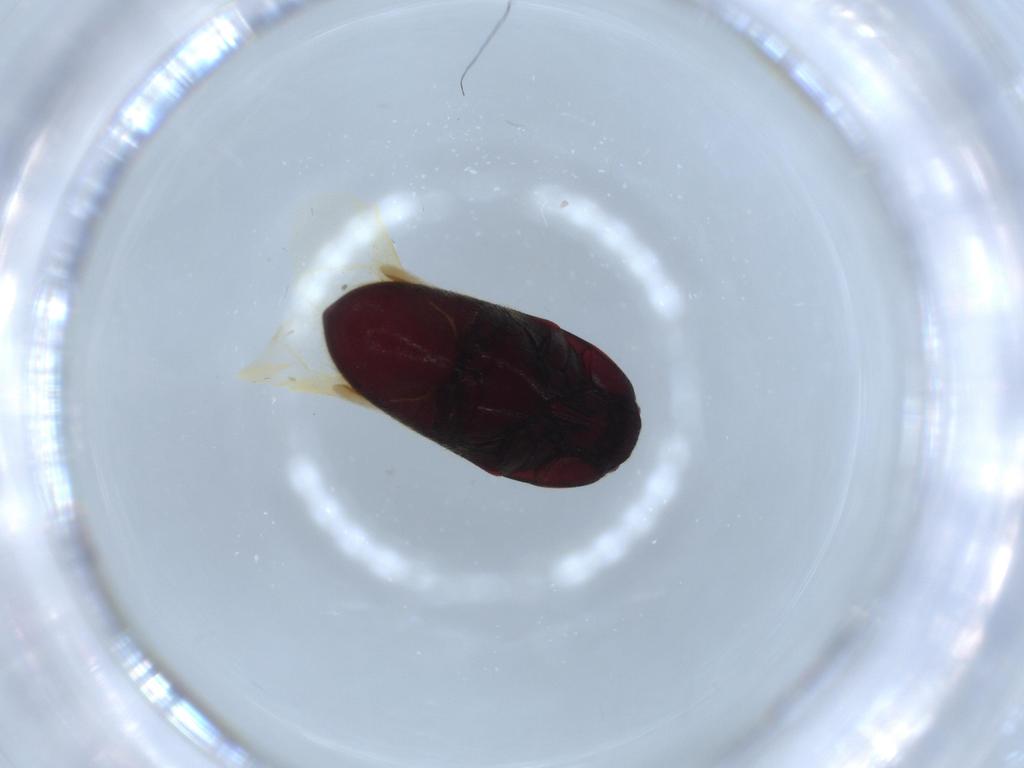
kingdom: Animalia
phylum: Arthropoda
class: Insecta
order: Coleoptera
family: Throscidae
